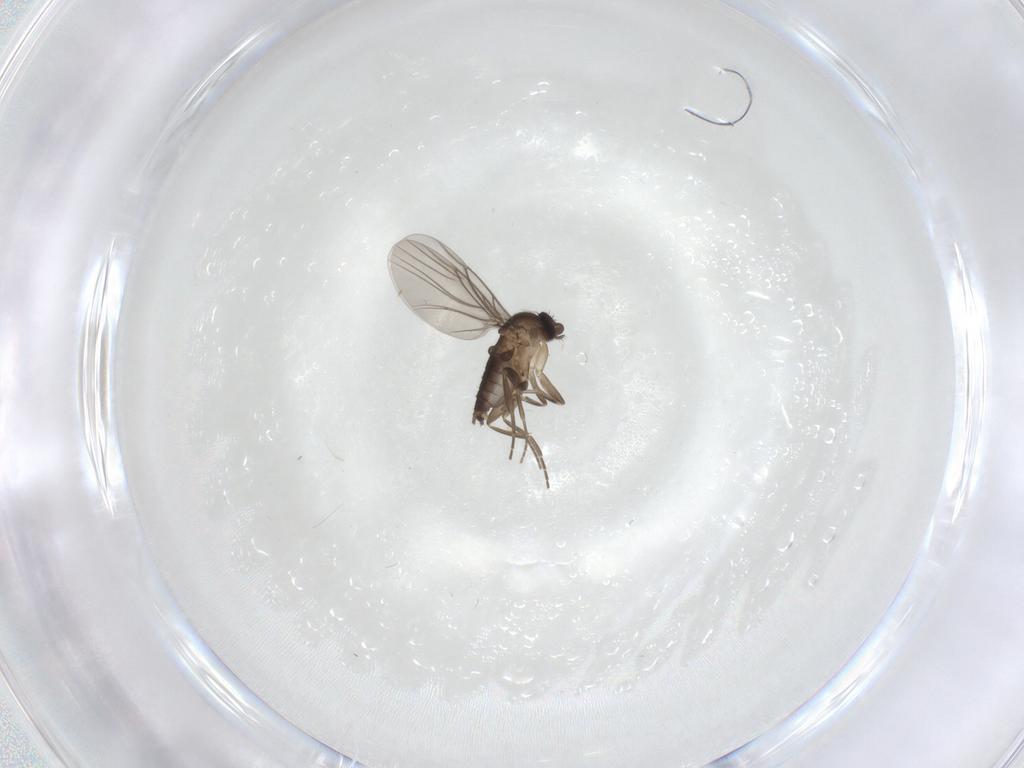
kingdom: Animalia
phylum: Arthropoda
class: Insecta
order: Diptera
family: Phoridae
